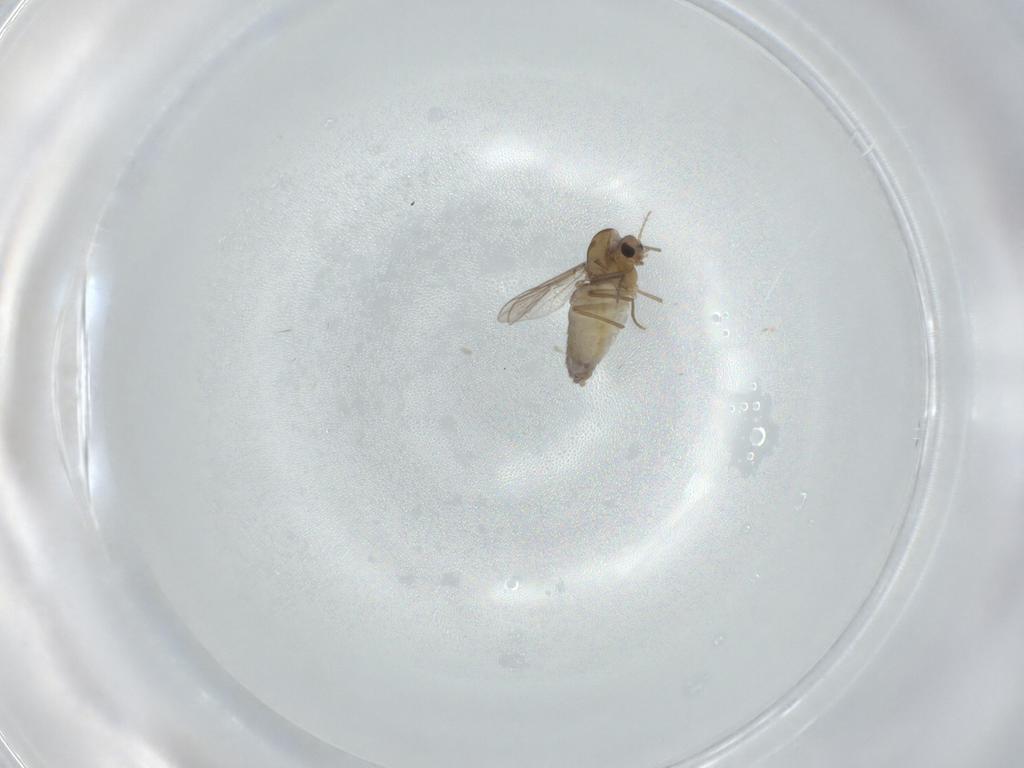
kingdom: Animalia
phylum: Arthropoda
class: Insecta
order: Diptera
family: Chironomidae
